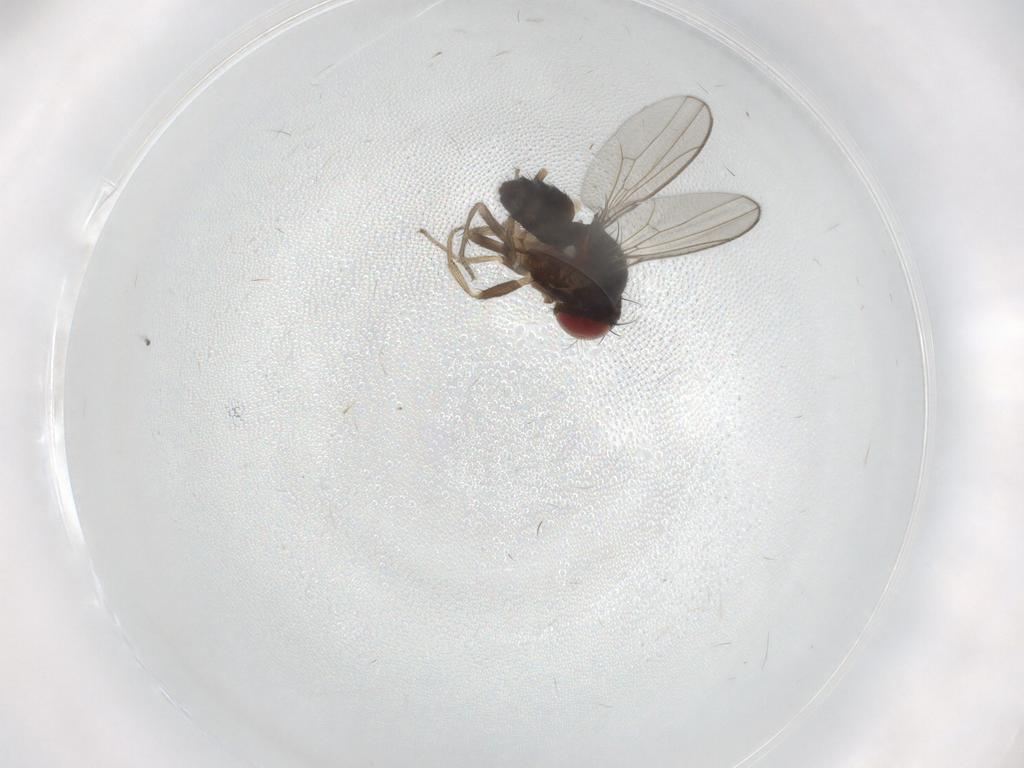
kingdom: Animalia
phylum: Arthropoda
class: Insecta
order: Diptera
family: Drosophilidae
